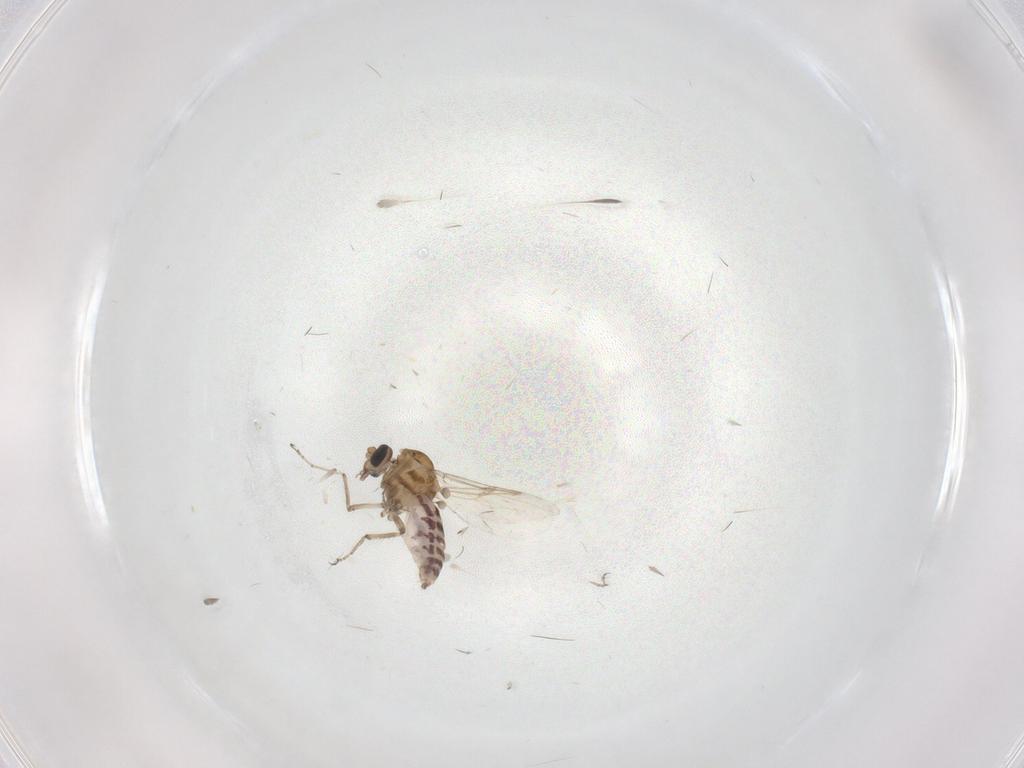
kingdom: Animalia
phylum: Arthropoda
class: Insecta
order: Diptera
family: Ceratopogonidae
